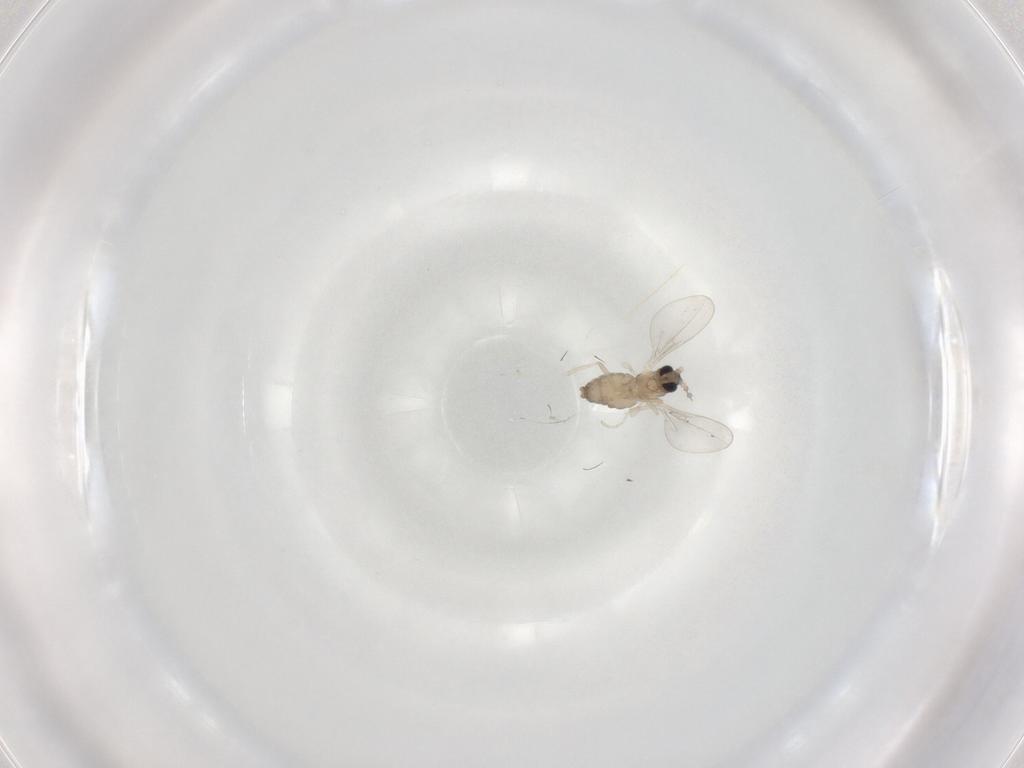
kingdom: Animalia
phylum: Arthropoda
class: Insecta
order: Diptera
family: Cecidomyiidae
